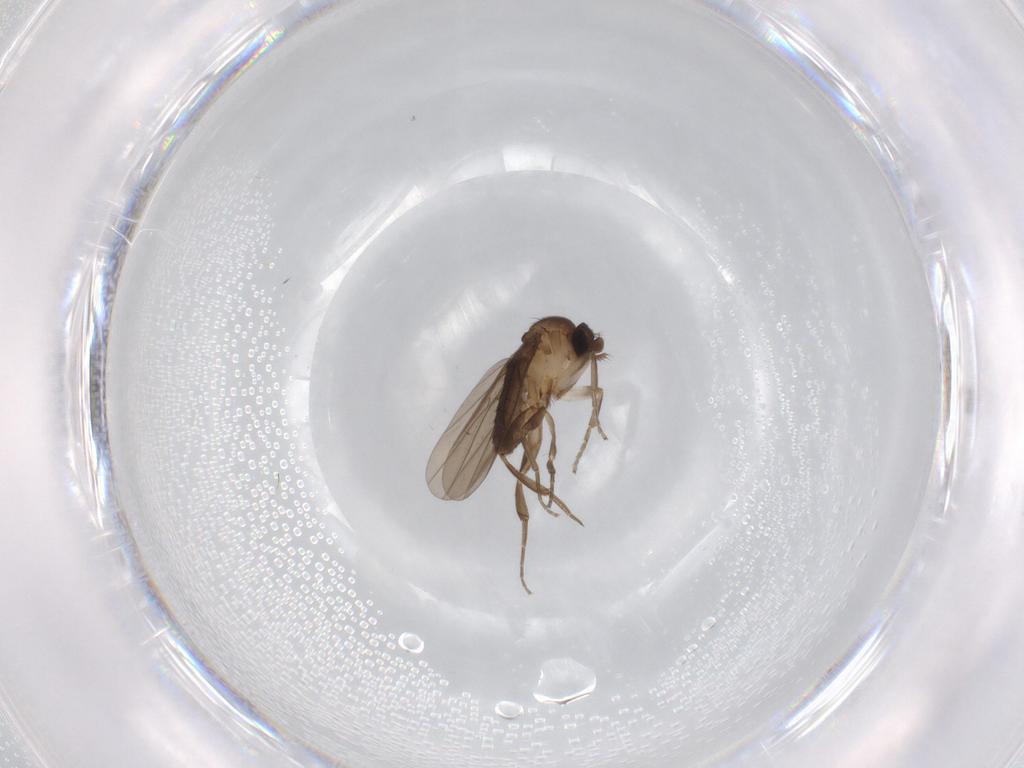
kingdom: Animalia
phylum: Arthropoda
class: Insecta
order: Diptera
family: Limoniidae
